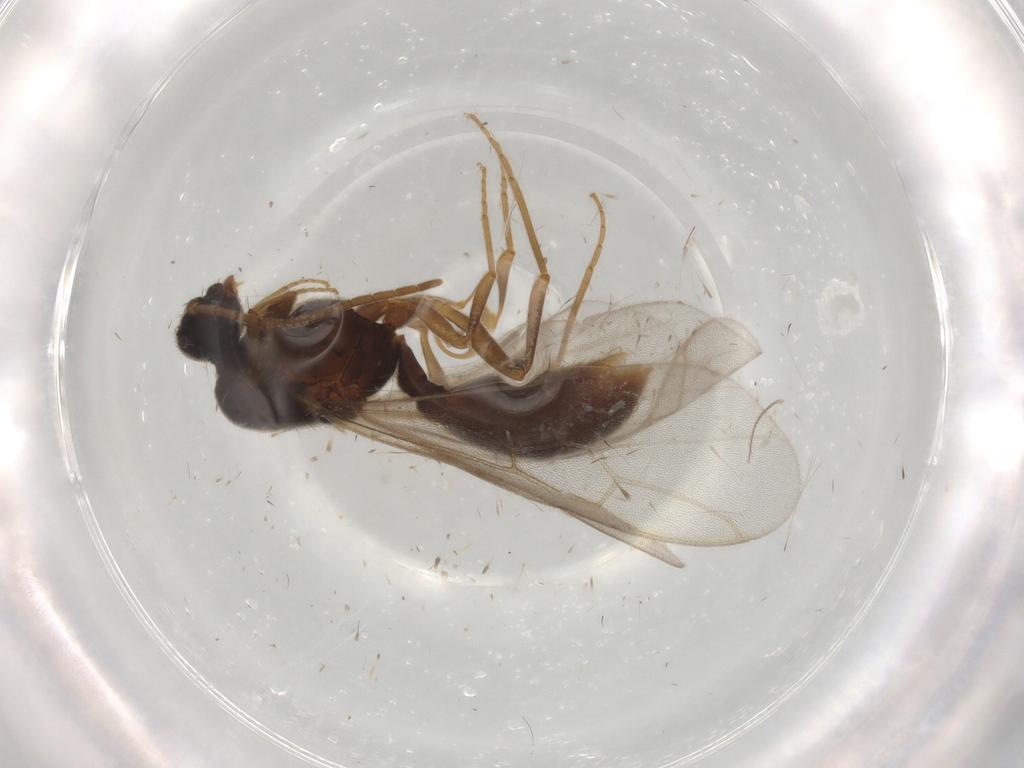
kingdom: Animalia
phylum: Arthropoda
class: Insecta
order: Hymenoptera
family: Formicidae
